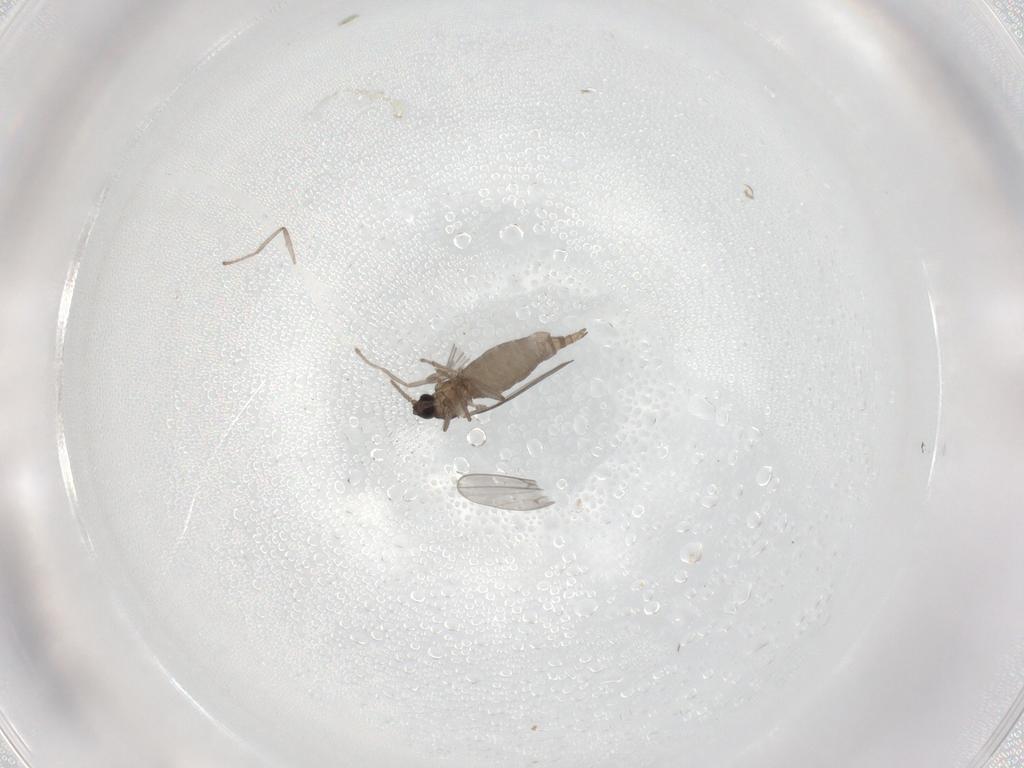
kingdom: Animalia
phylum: Arthropoda
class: Insecta
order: Diptera
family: Cecidomyiidae
